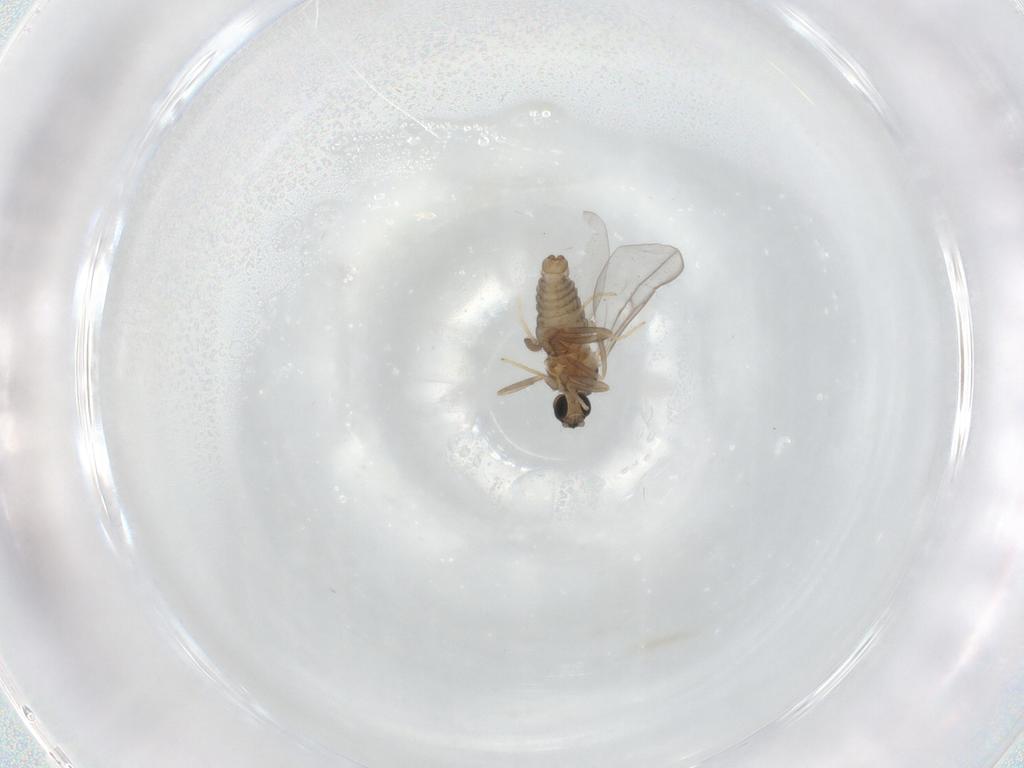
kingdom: Animalia
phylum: Arthropoda
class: Insecta
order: Diptera
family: Cecidomyiidae
